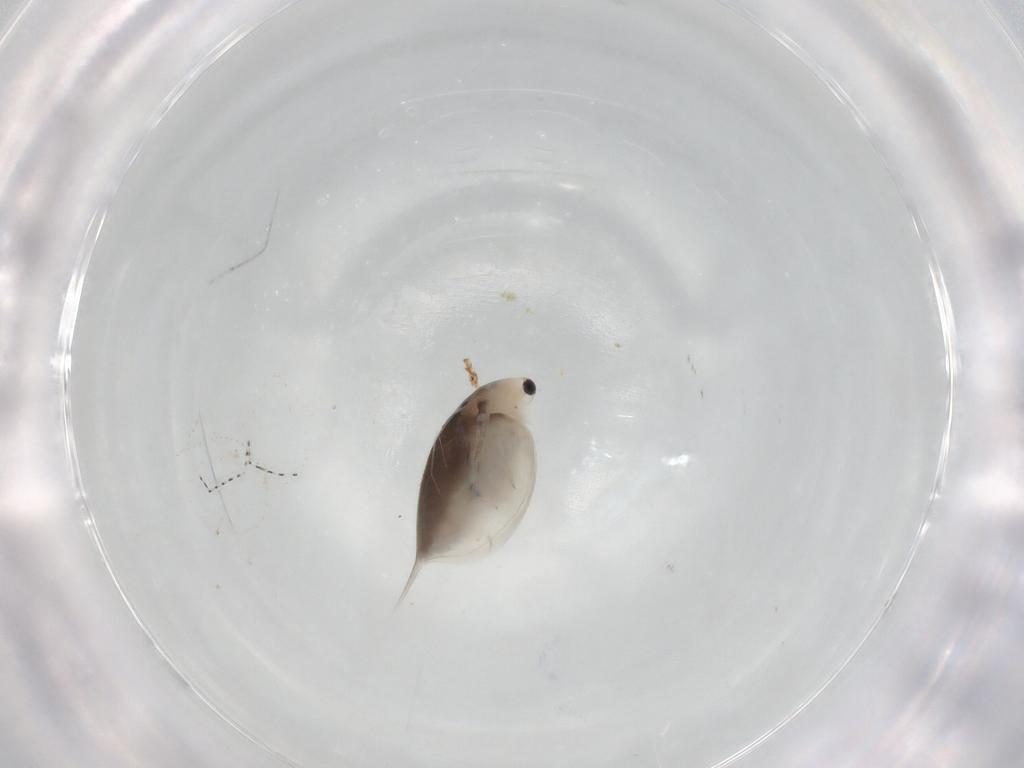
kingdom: Animalia
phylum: Arthropoda
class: Branchiopoda
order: Diplostraca
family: Daphniidae
